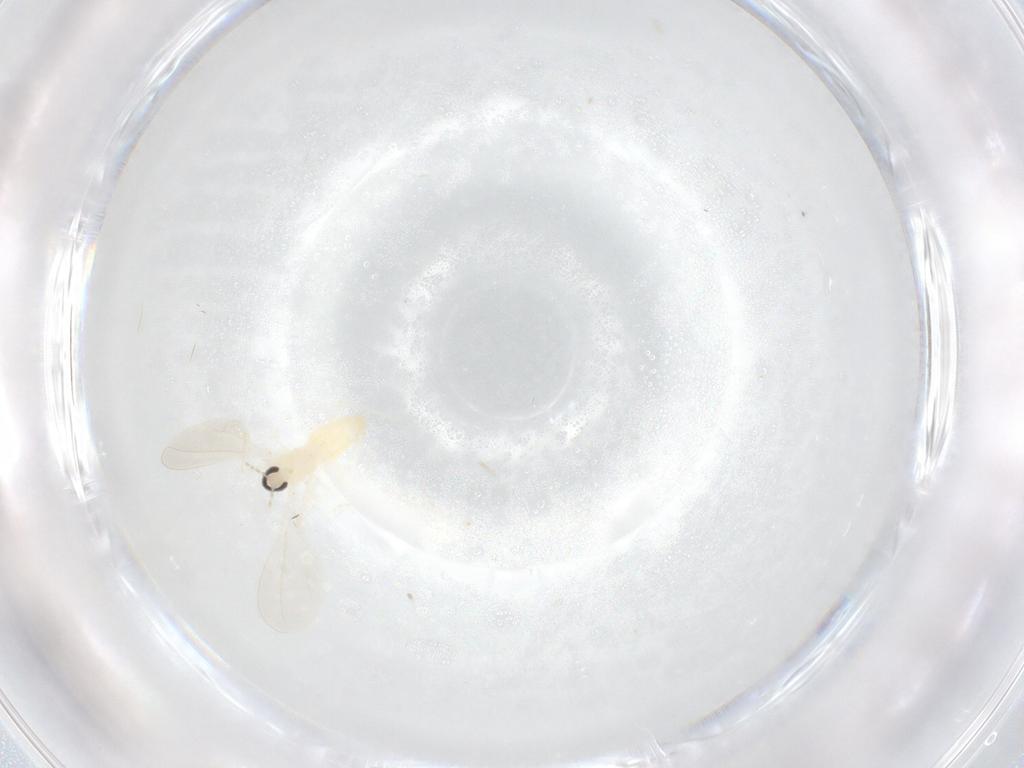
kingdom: Animalia
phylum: Arthropoda
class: Insecta
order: Diptera
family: Cecidomyiidae
